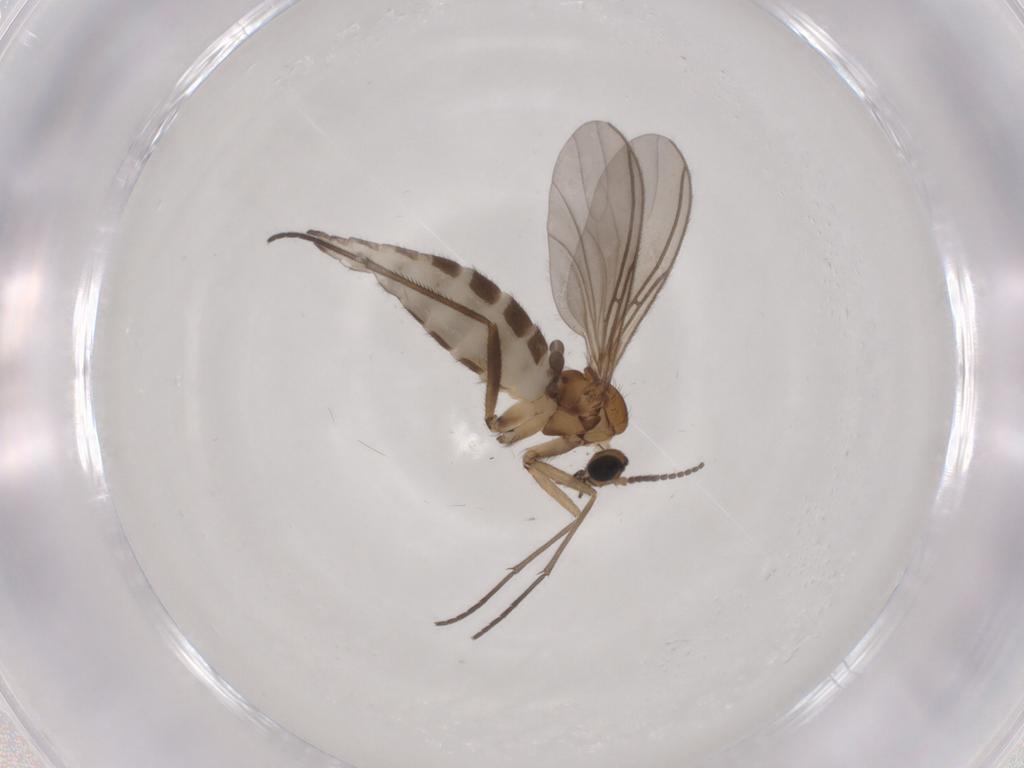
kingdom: Animalia
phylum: Arthropoda
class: Insecta
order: Diptera
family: Sciaridae
